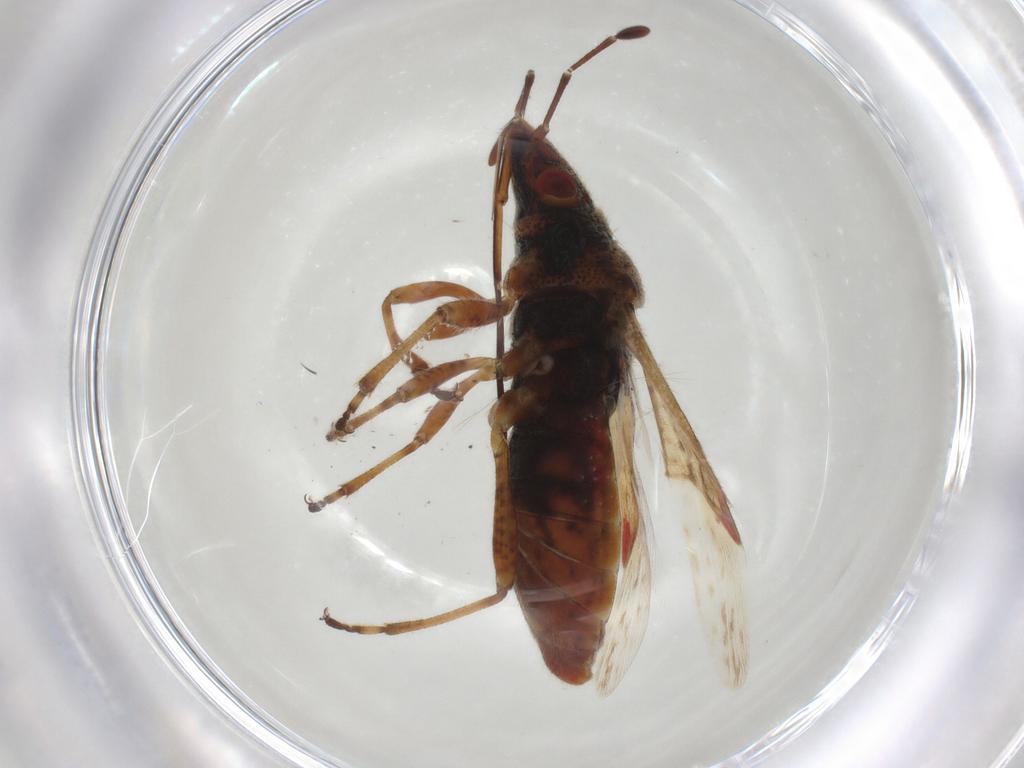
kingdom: Animalia
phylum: Arthropoda
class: Insecta
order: Hemiptera
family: Lygaeidae
